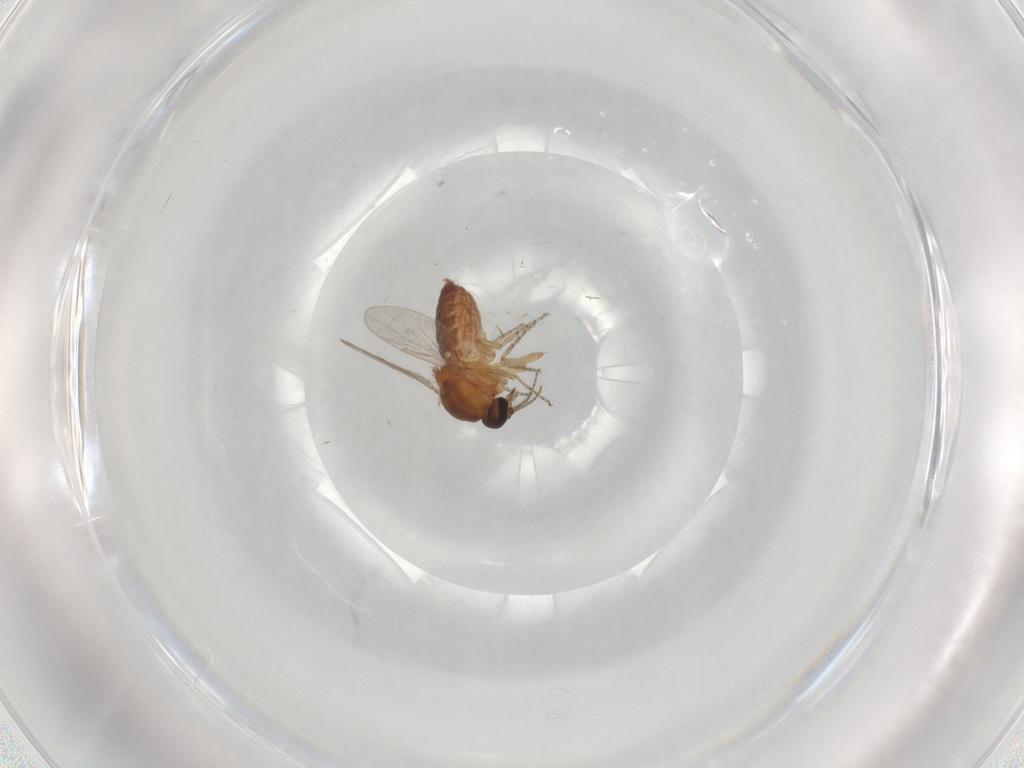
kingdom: Animalia
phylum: Arthropoda
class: Insecta
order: Diptera
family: Ceratopogonidae
